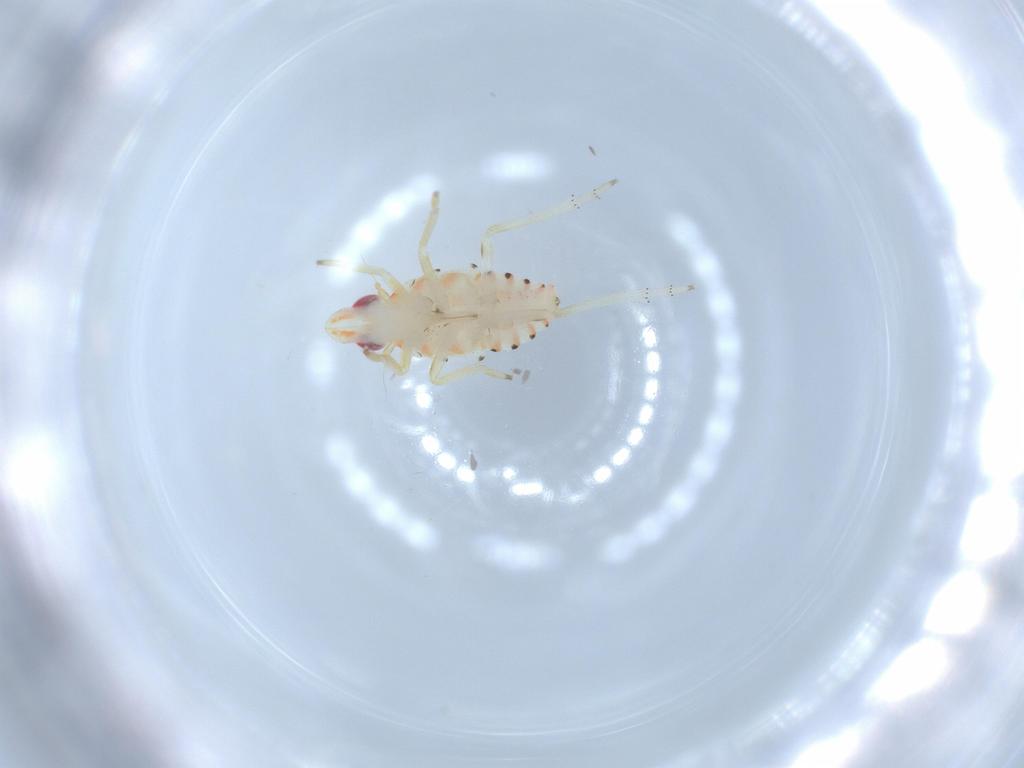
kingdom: Animalia
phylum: Arthropoda
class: Insecta
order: Hemiptera
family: Tropiduchidae
